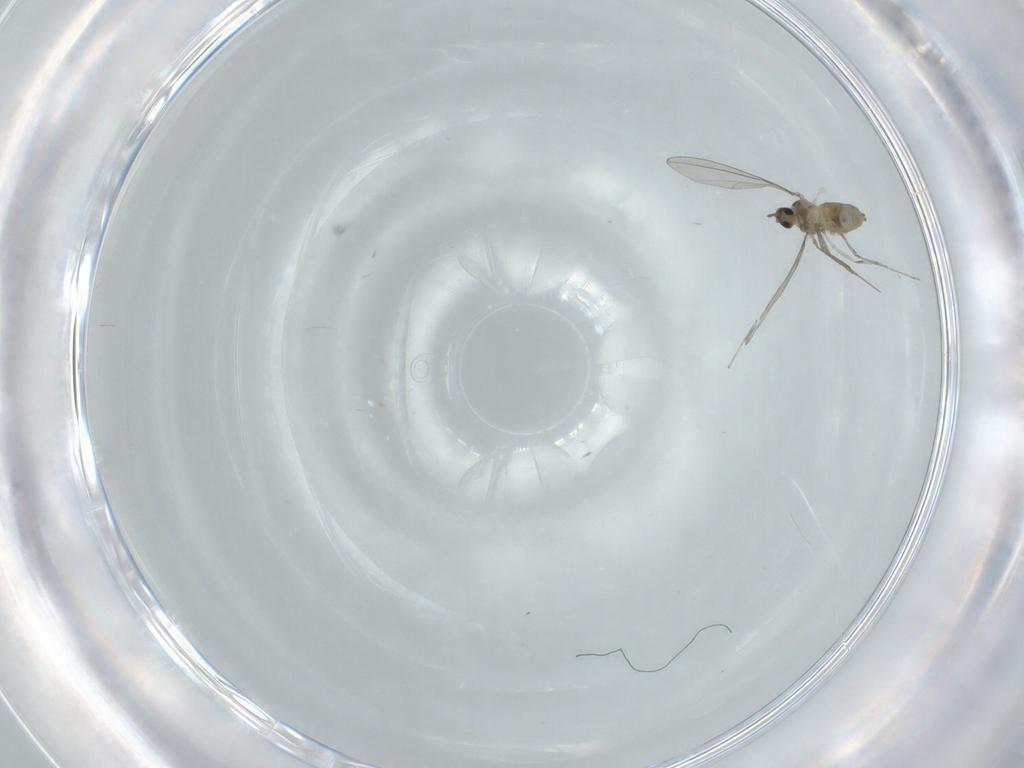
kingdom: Animalia
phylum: Arthropoda
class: Insecta
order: Diptera
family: Cecidomyiidae
